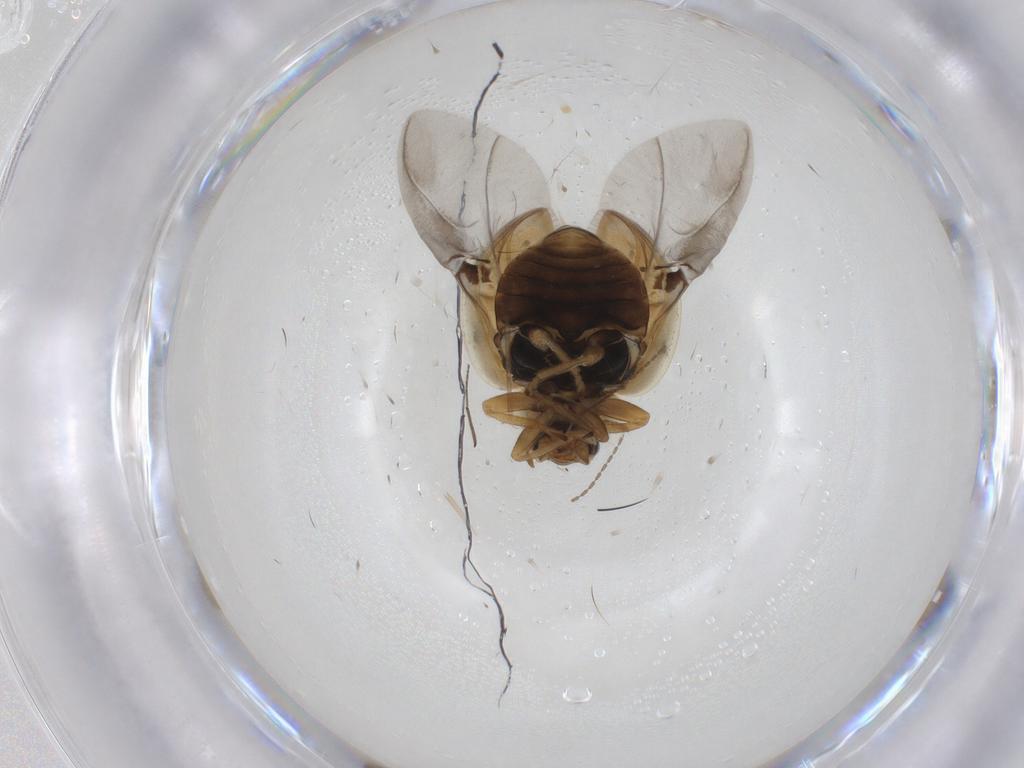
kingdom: Animalia
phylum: Arthropoda
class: Insecta
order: Coleoptera
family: Coccinellidae
